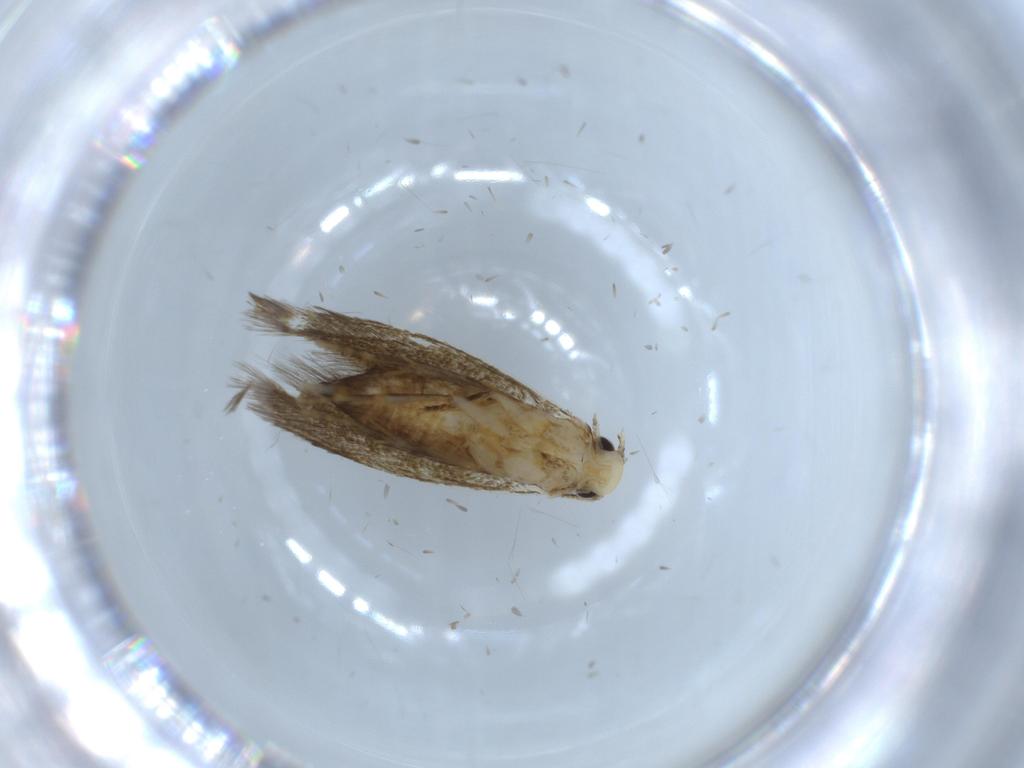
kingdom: Animalia
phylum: Arthropoda
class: Insecta
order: Lepidoptera
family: Tineidae
